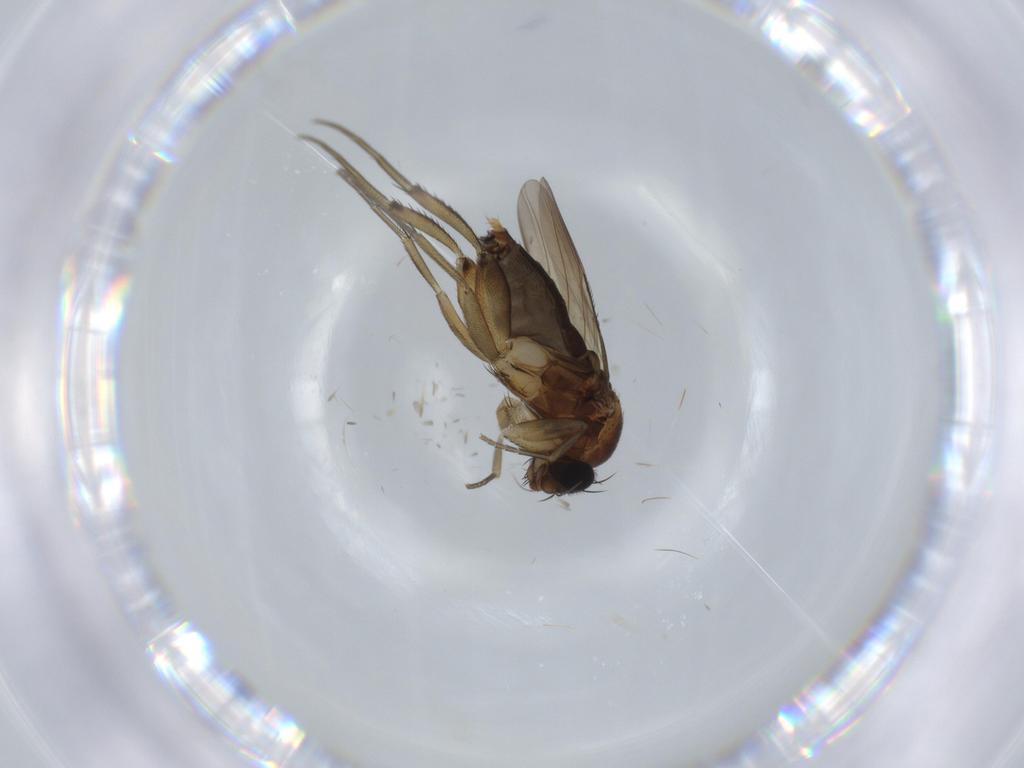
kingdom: Animalia
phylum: Arthropoda
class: Insecta
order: Diptera
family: Phoridae
